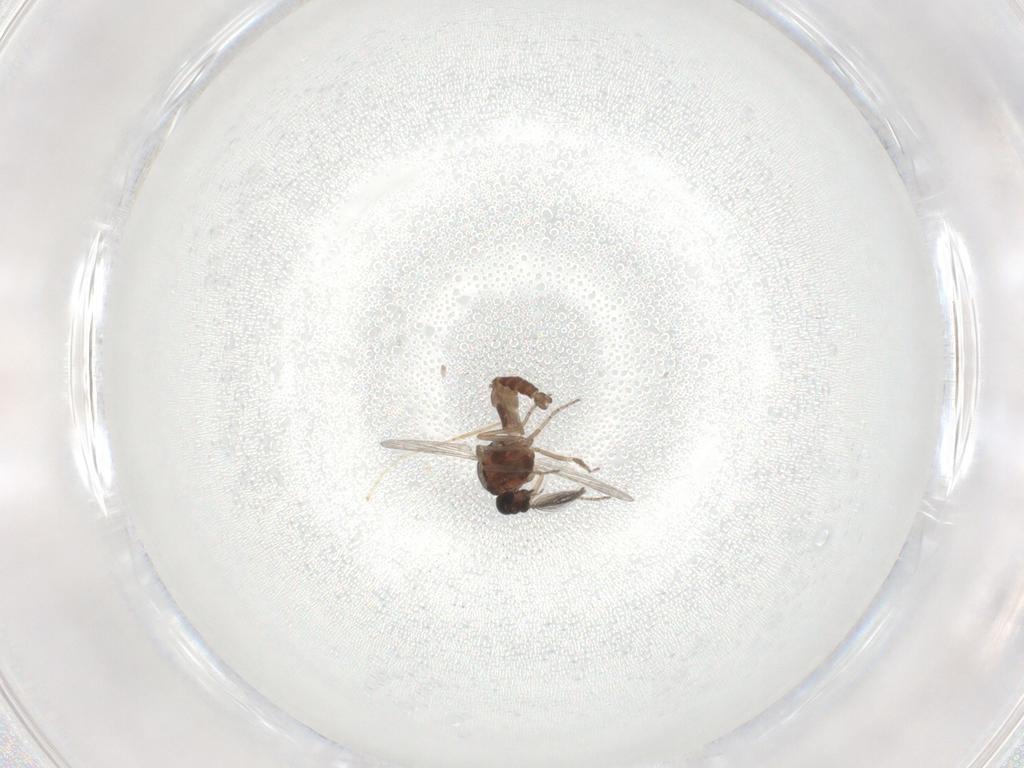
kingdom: Animalia
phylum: Arthropoda
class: Insecta
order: Diptera
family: Ceratopogonidae
